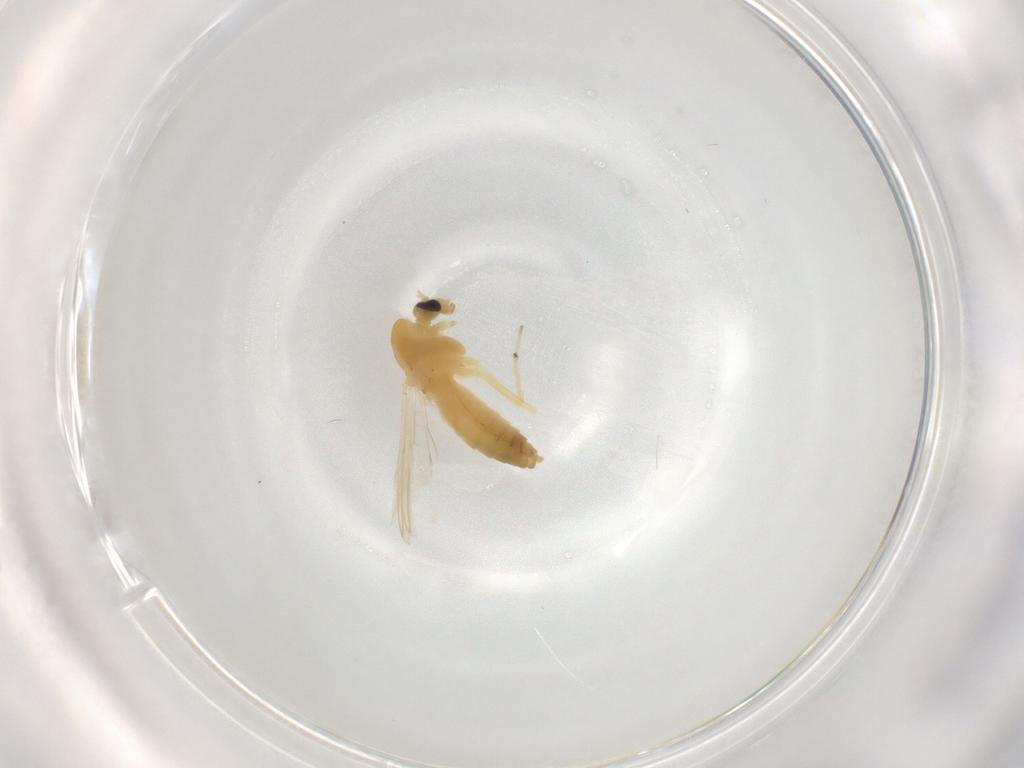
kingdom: Animalia
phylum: Arthropoda
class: Insecta
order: Diptera
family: Chironomidae
